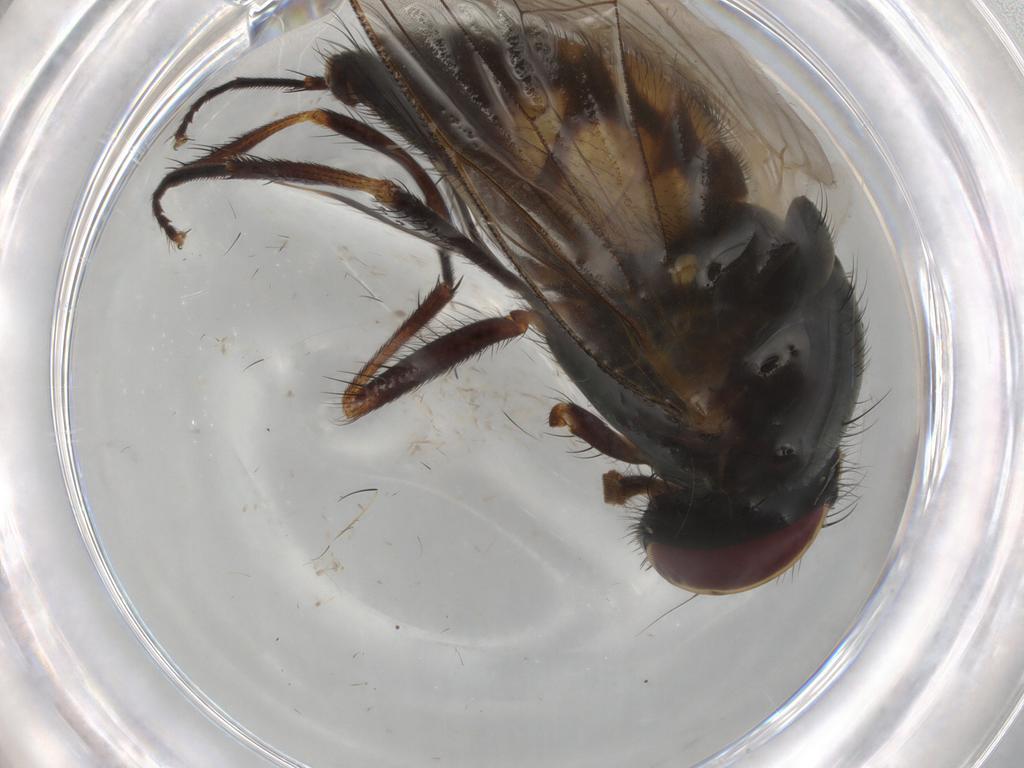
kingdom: Animalia
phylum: Arthropoda
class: Insecta
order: Diptera
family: Fannia
